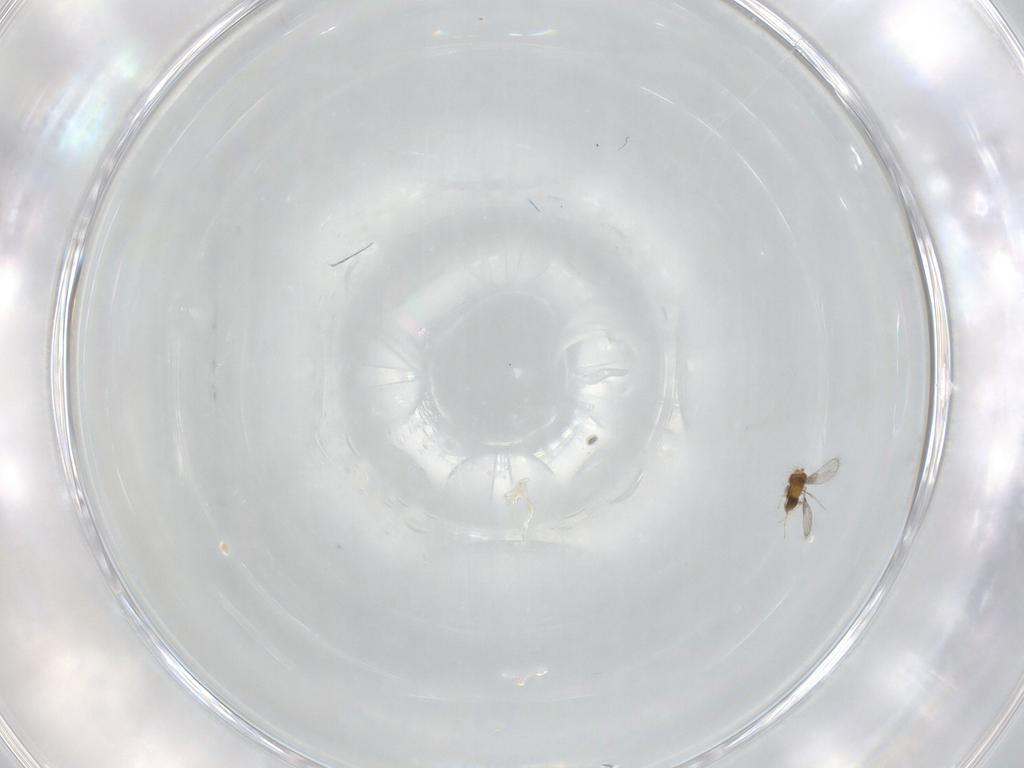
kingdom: Animalia
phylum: Arthropoda
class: Insecta
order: Hymenoptera
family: Trichogrammatidae
